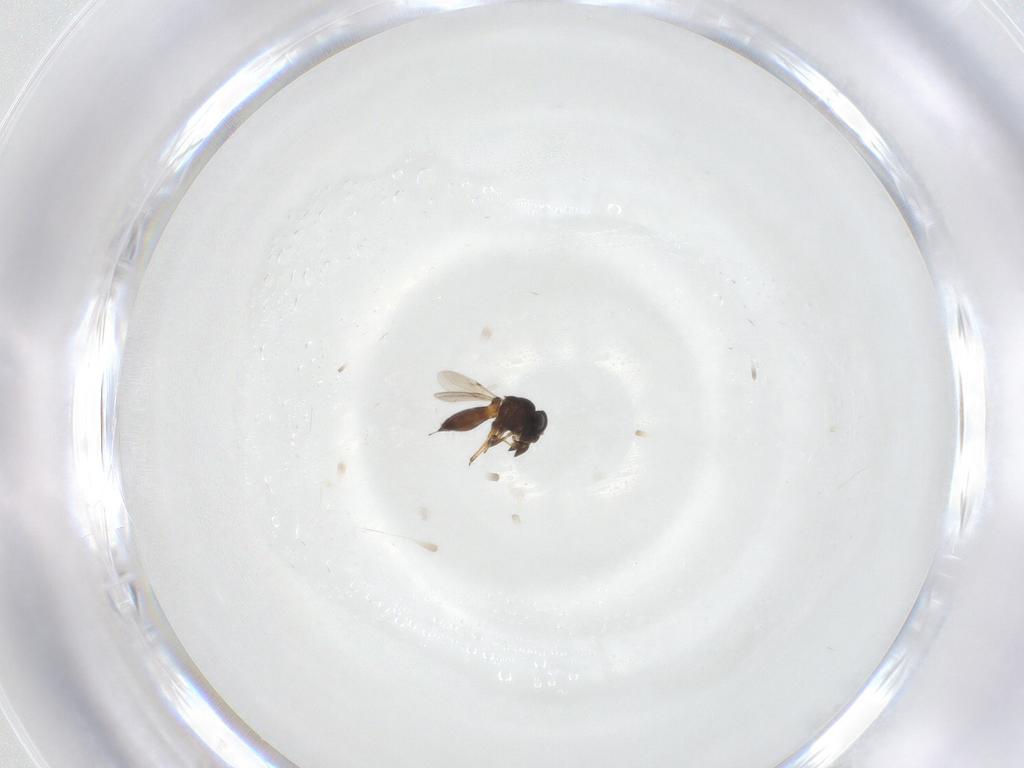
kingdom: Animalia
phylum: Arthropoda
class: Insecta
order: Hymenoptera
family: Scelionidae
